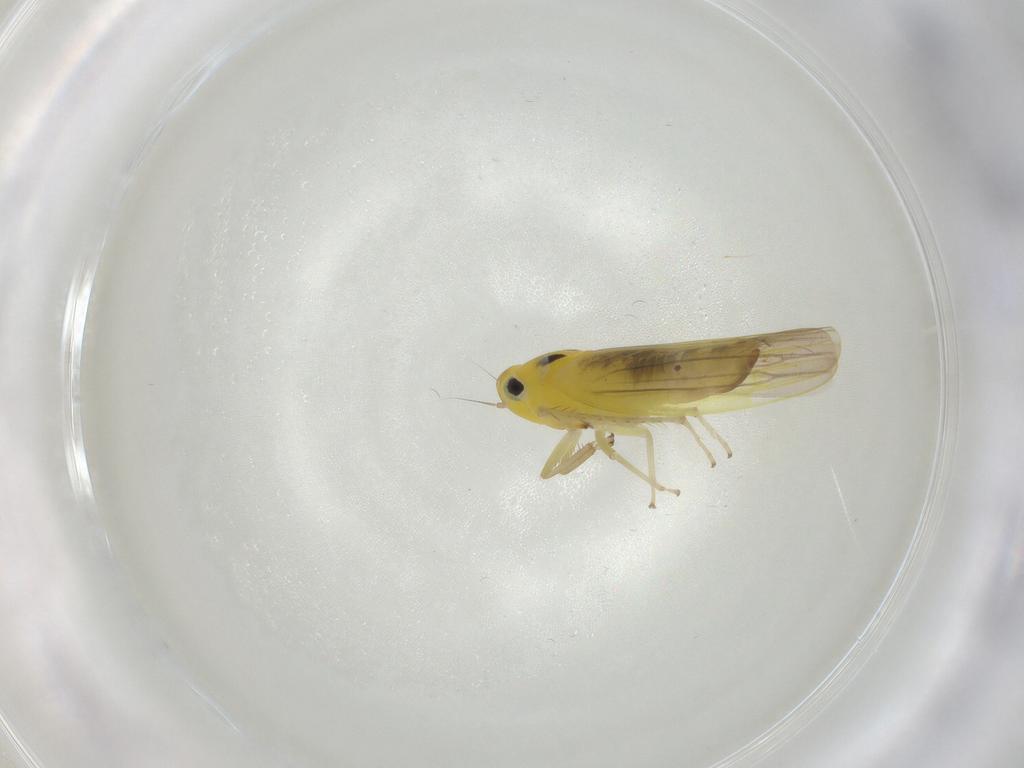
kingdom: Animalia
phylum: Arthropoda
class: Insecta
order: Hemiptera
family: Cicadellidae
